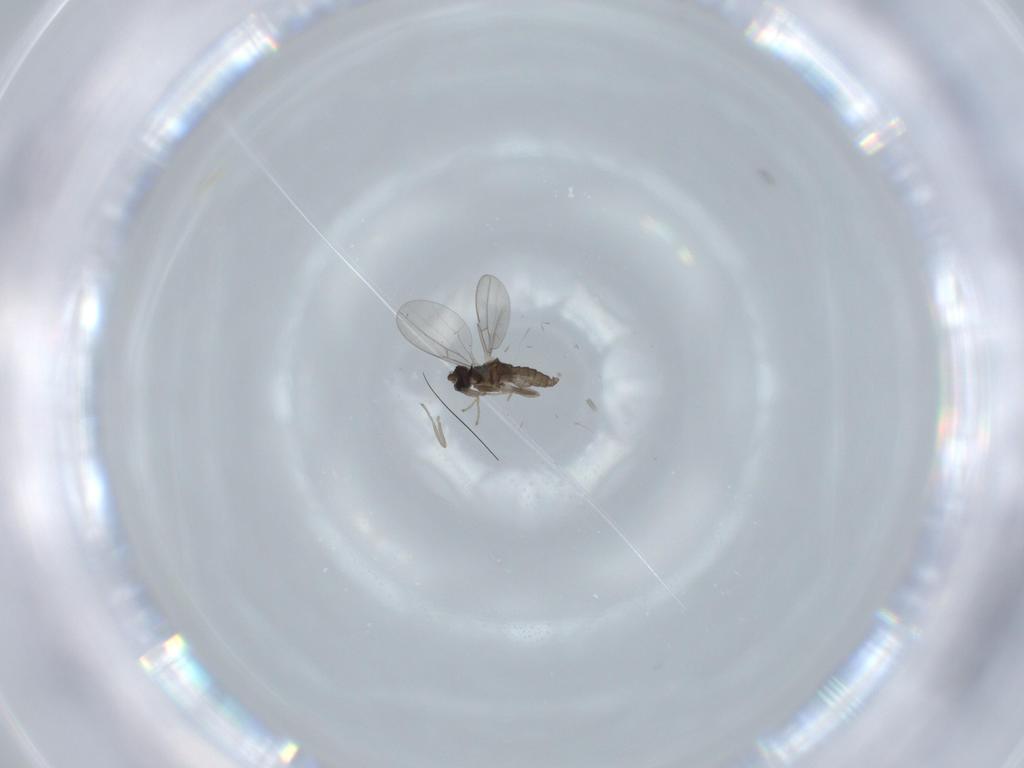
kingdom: Animalia
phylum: Arthropoda
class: Insecta
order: Diptera
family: Cecidomyiidae
